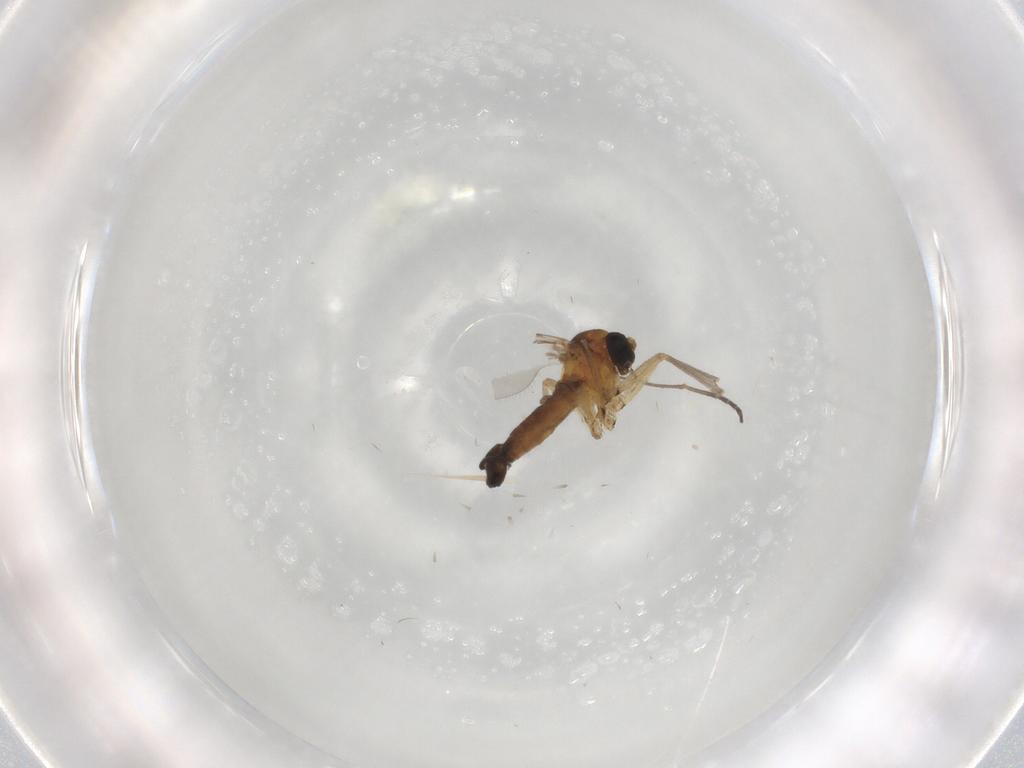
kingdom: Animalia
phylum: Arthropoda
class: Insecta
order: Diptera
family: Sciaridae
